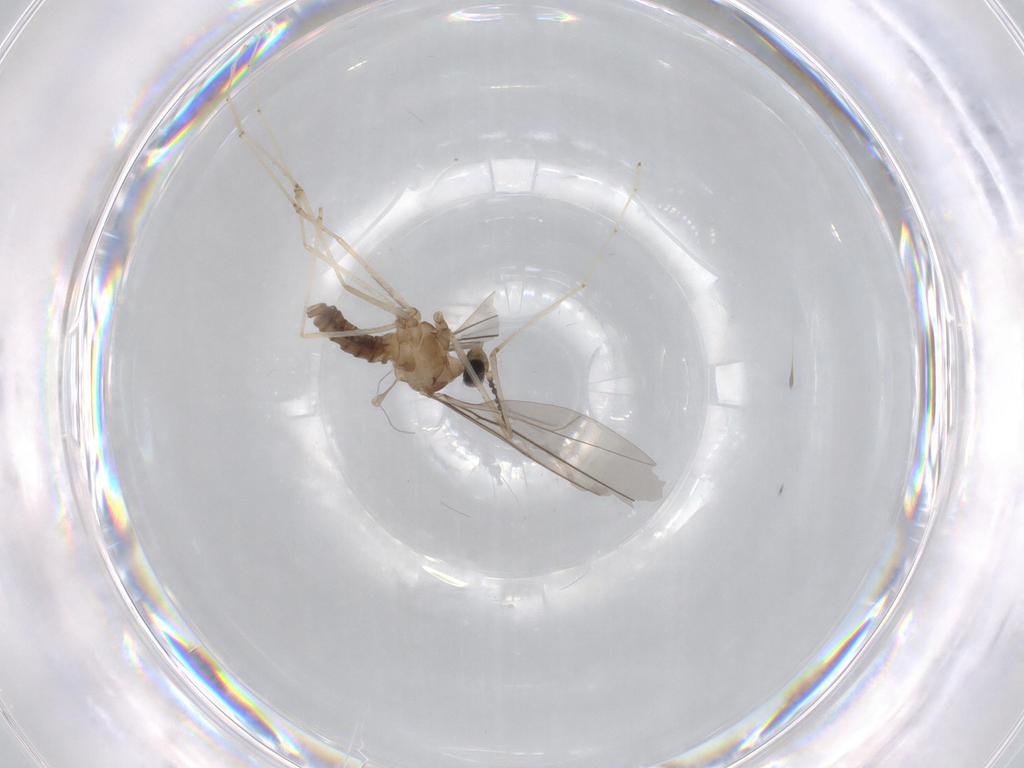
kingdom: Animalia
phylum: Arthropoda
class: Insecta
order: Diptera
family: Cecidomyiidae
